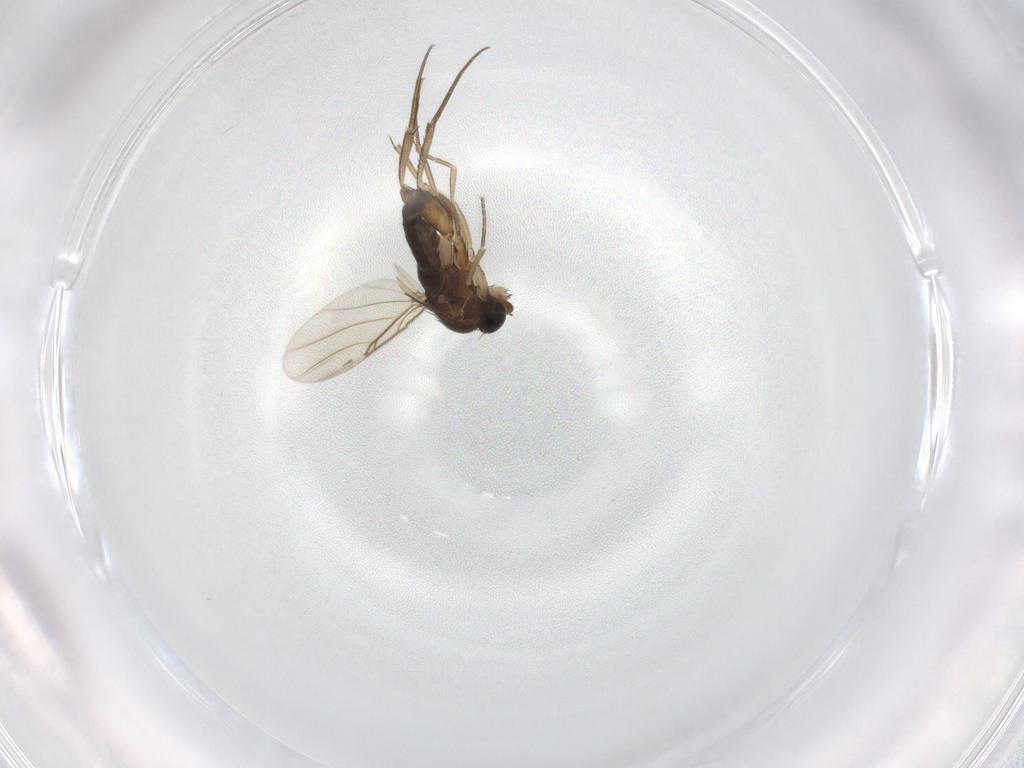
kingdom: Animalia
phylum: Arthropoda
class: Insecta
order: Diptera
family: Phoridae
